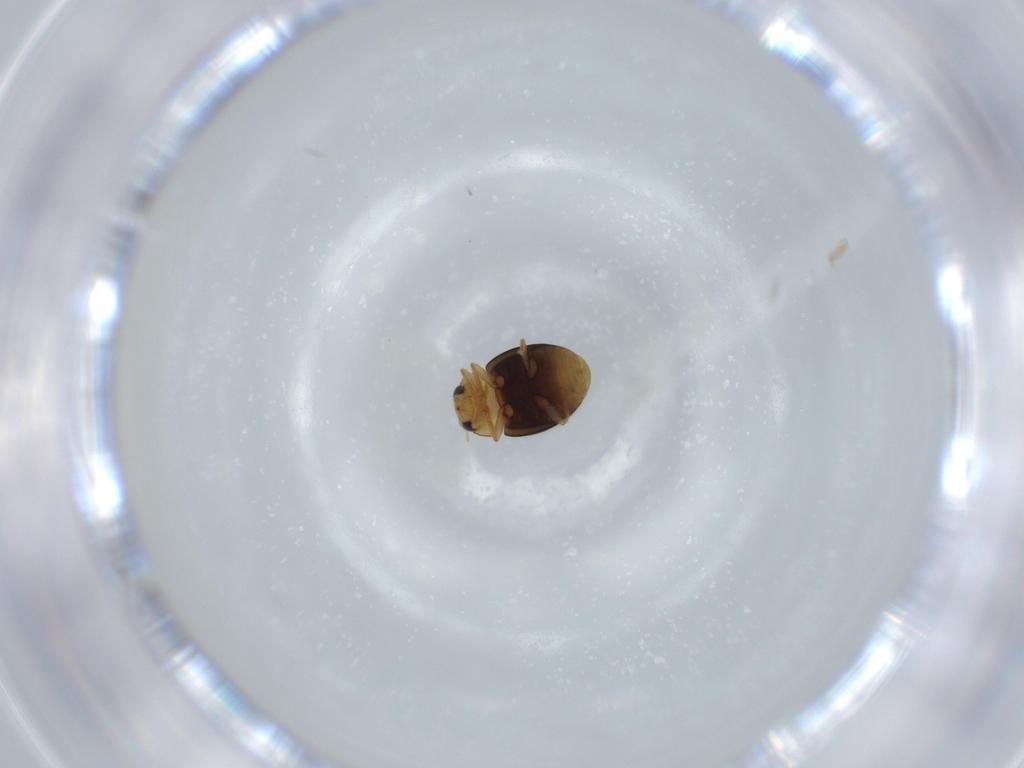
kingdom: Animalia
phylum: Arthropoda
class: Insecta
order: Coleoptera
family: Coccinellidae
